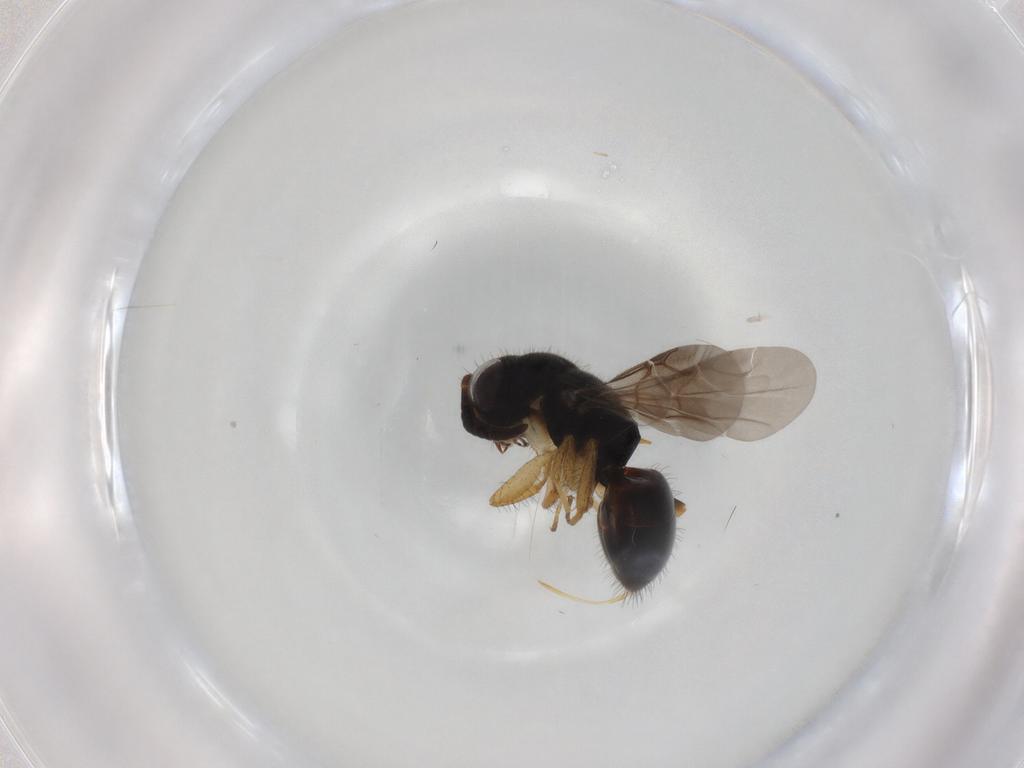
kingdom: Animalia
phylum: Arthropoda
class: Insecta
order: Hymenoptera
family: Chrysididae
